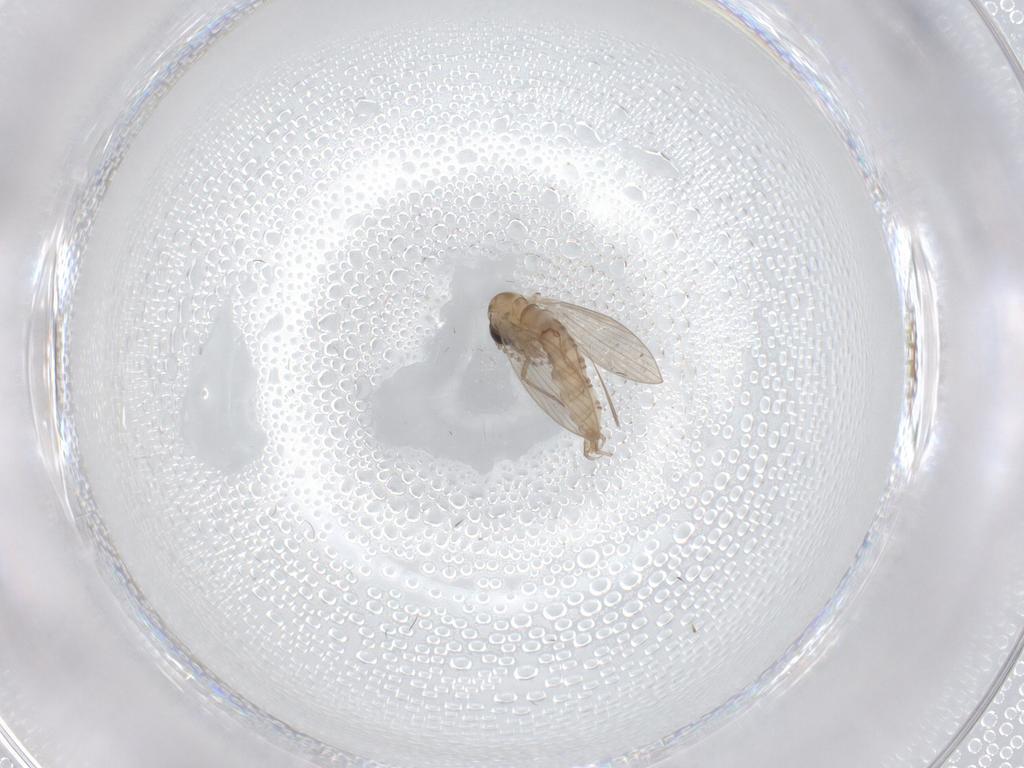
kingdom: Animalia
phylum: Arthropoda
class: Insecta
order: Diptera
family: Psychodidae
